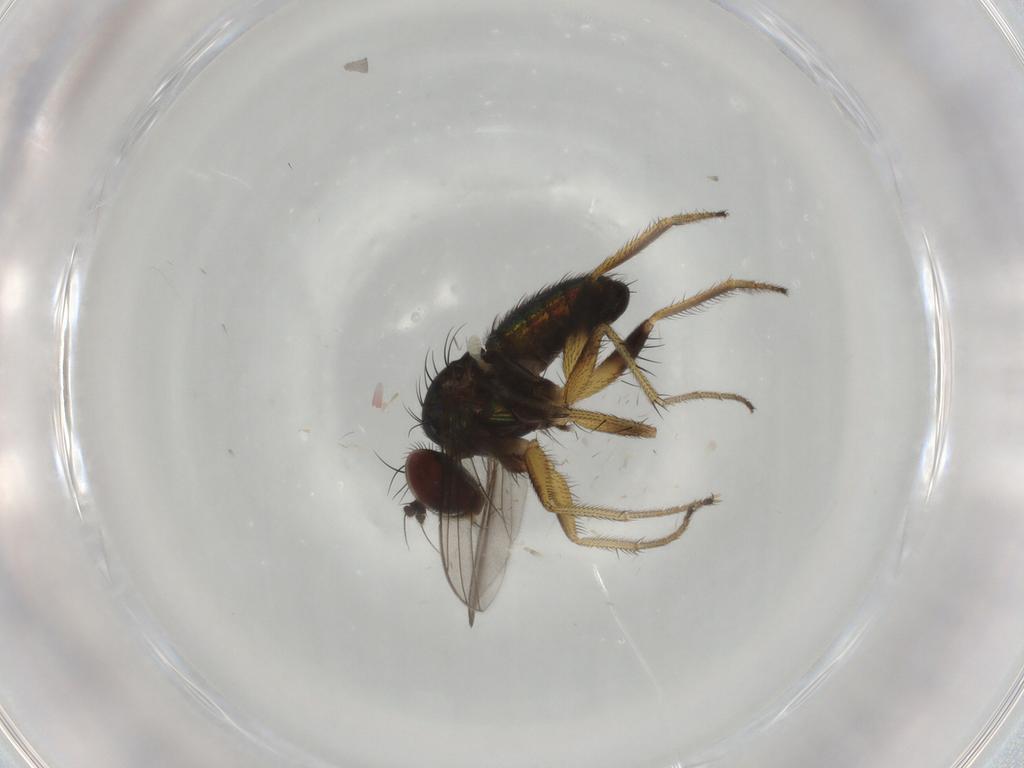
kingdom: Animalia
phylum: Arthropoda
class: Insecta
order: Diptera
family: Dolichopodidae
